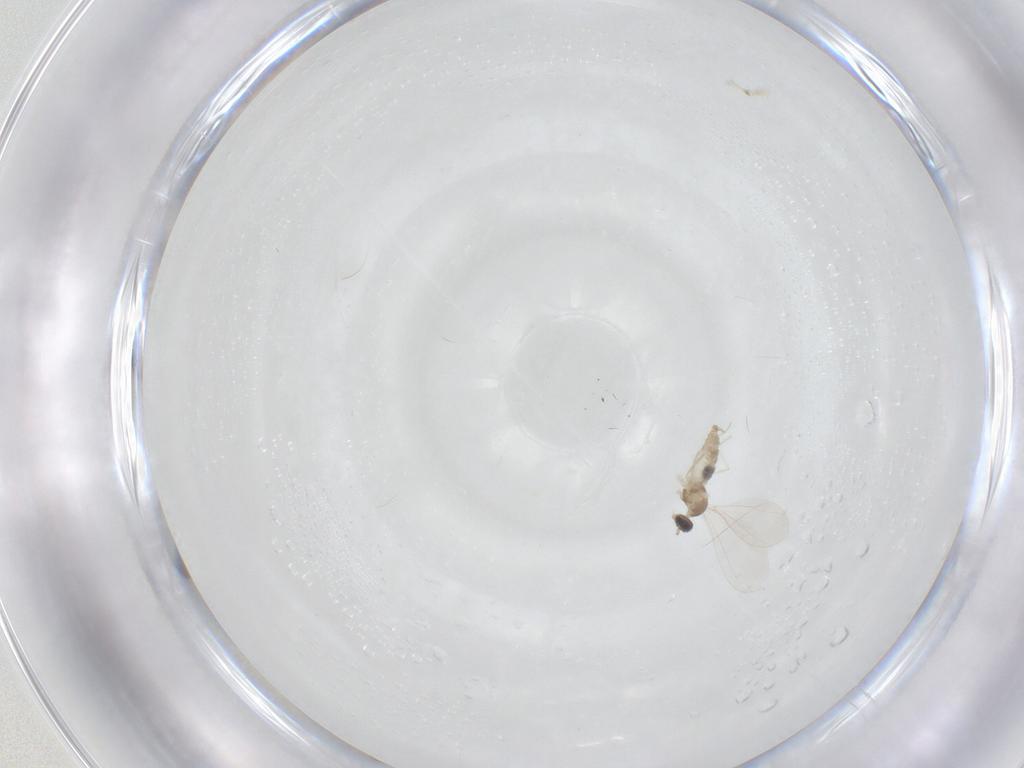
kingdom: Animalia
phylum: Arthropoda
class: Insecta
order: Diptera
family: Cecidomyiidae
